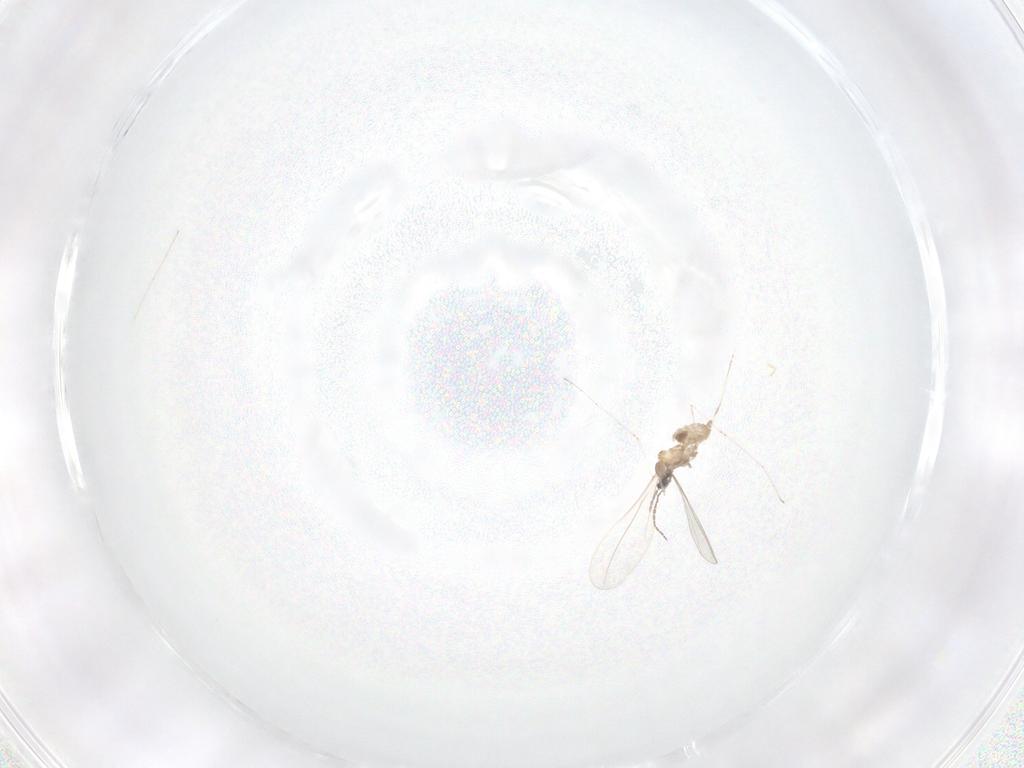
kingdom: Animalia
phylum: Arthropoda
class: Insecta
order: Diptera
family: Cecidomyiidae
